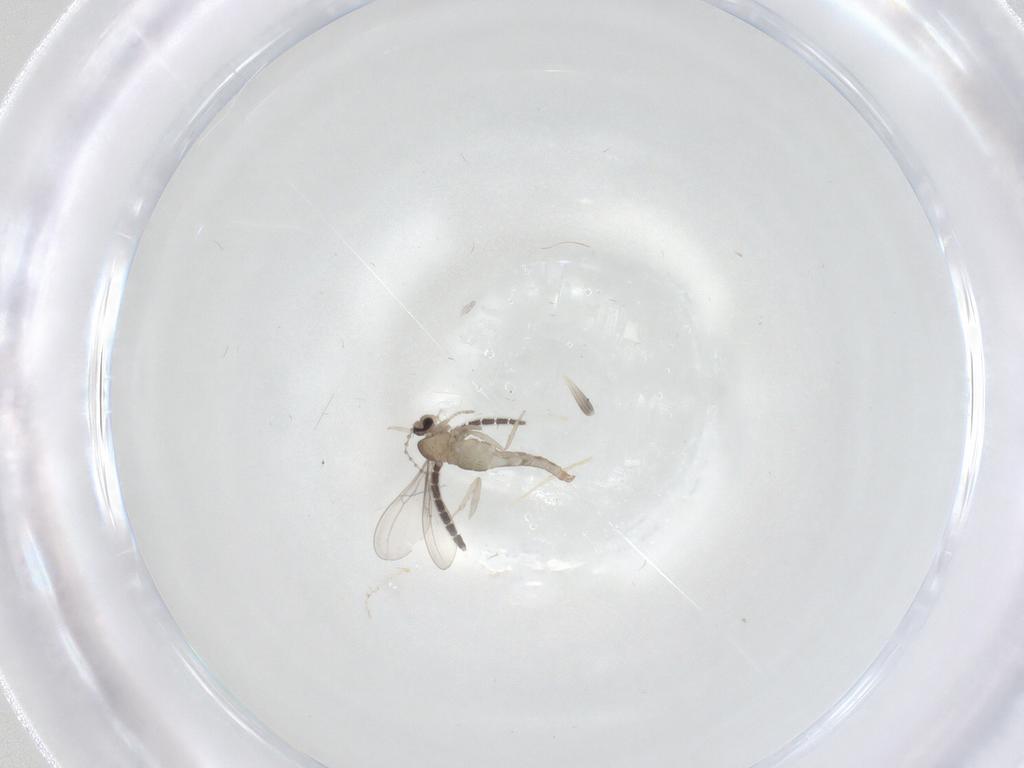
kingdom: Animalia
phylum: Arthropoda
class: Insecta
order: Diptera
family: Cecidomyiidae
